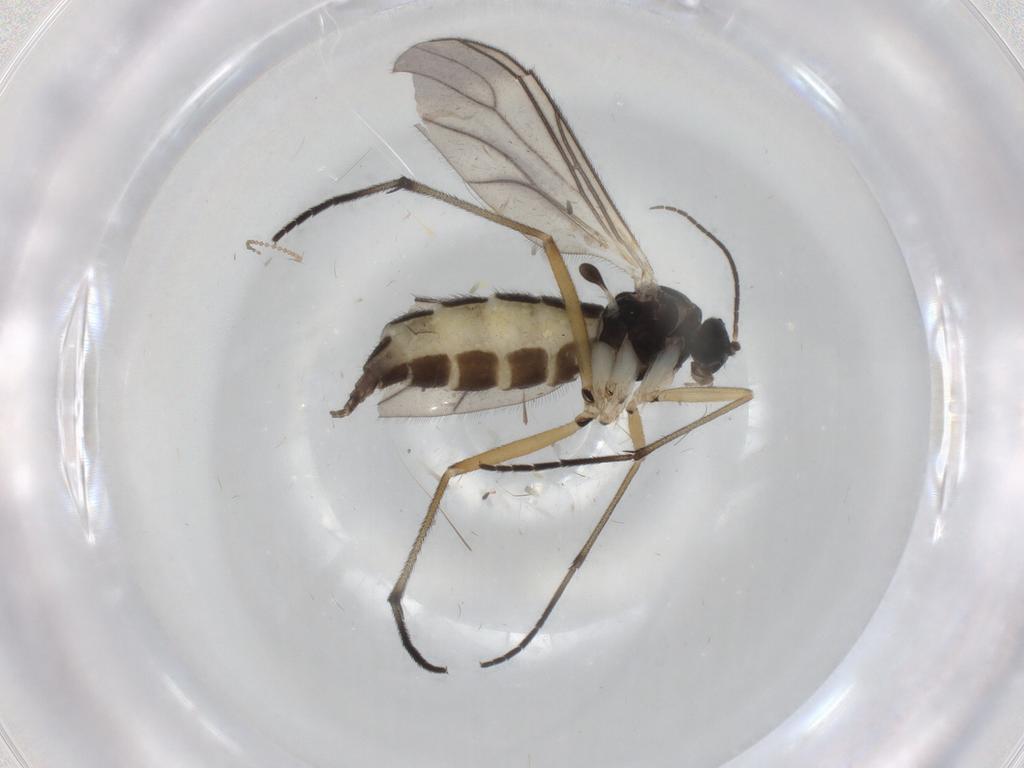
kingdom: Animalia
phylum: Arthropoda
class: Insecta
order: Diptera
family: Sciaridae
